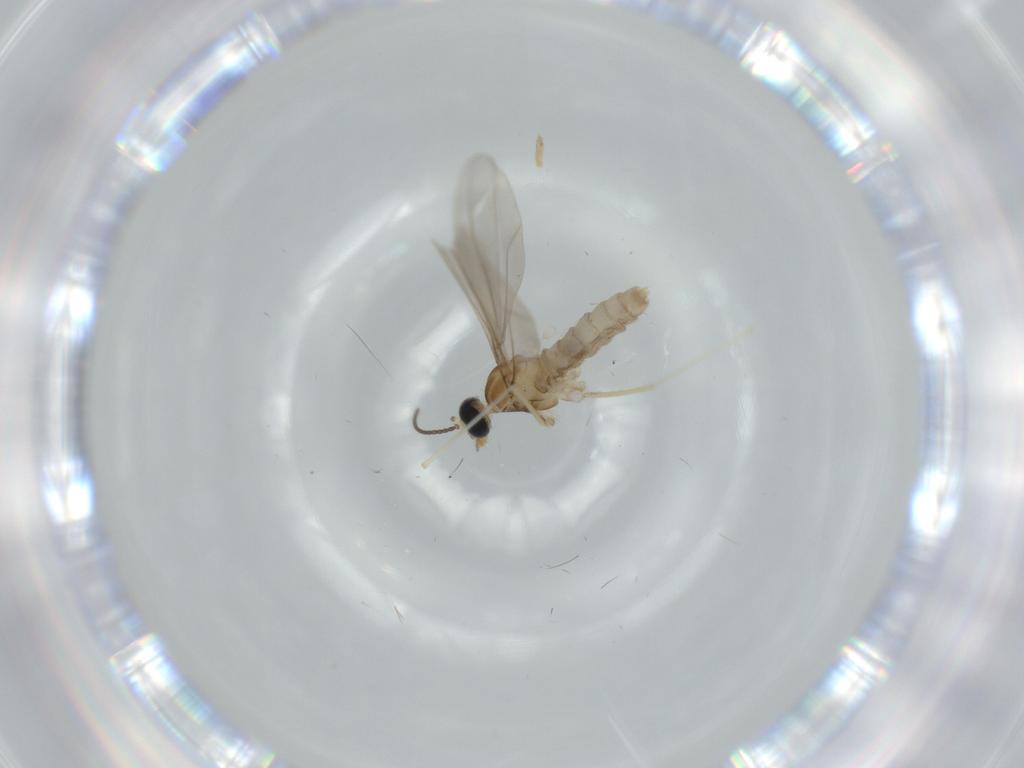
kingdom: Animalia
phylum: Arthropoda
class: Insecta
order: Diptera
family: Cecidomyiidae
